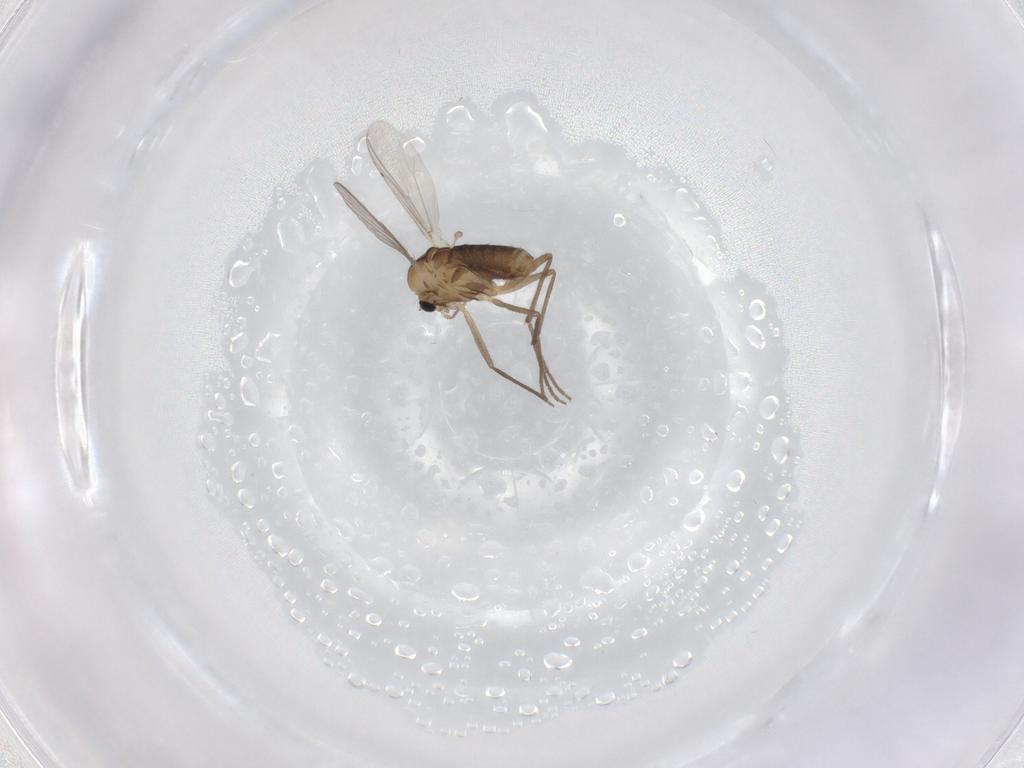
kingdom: Animalia
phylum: Arthropoda
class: Insecta
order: Diptera
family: Chironomidae
